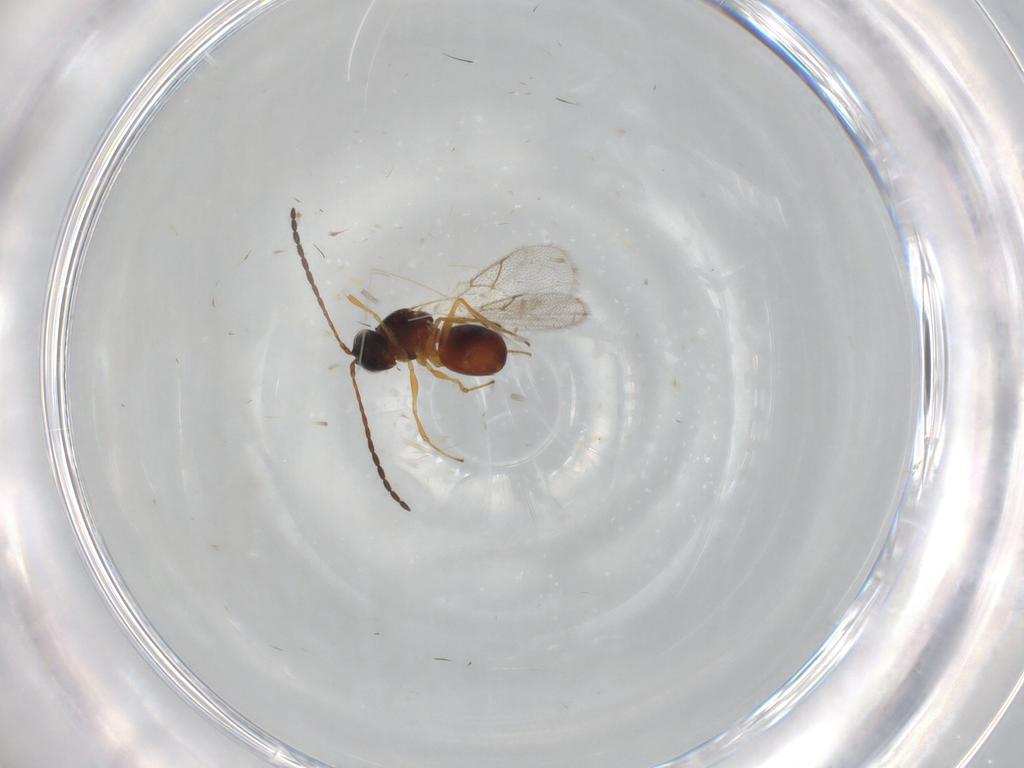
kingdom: Animalia
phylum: Arthropoda
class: Insecta
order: Hymenoptera
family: Figitidae
